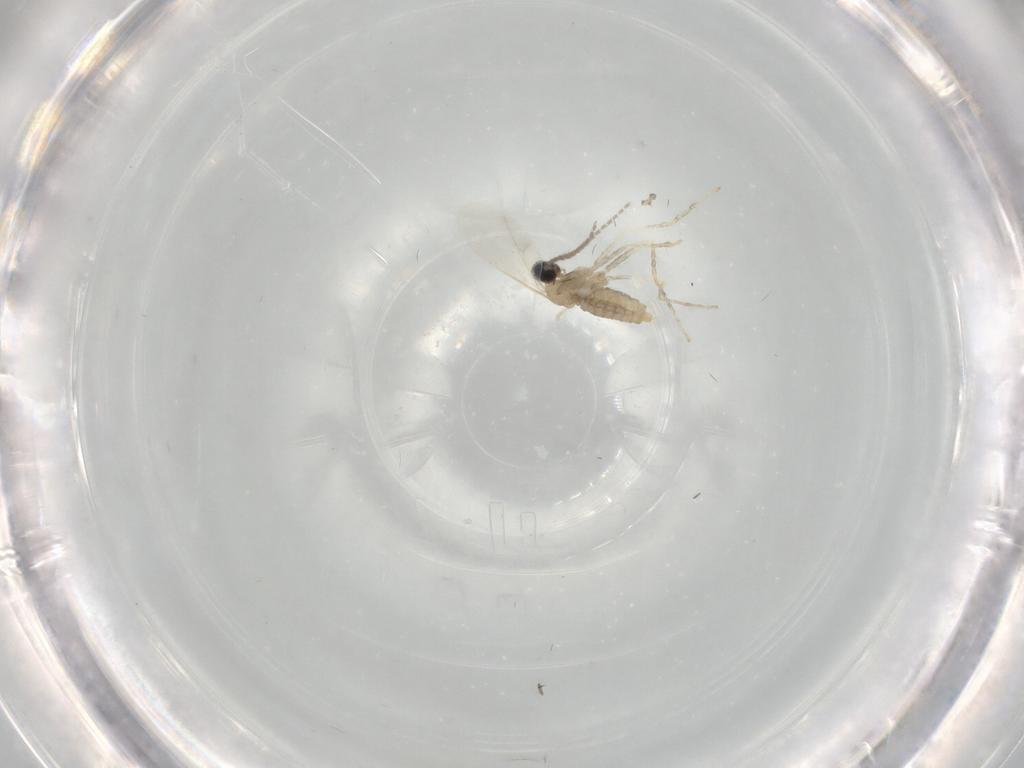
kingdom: Animalia
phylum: Arthropoda
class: Insecta
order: Diptera
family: Cecidomyiidae
